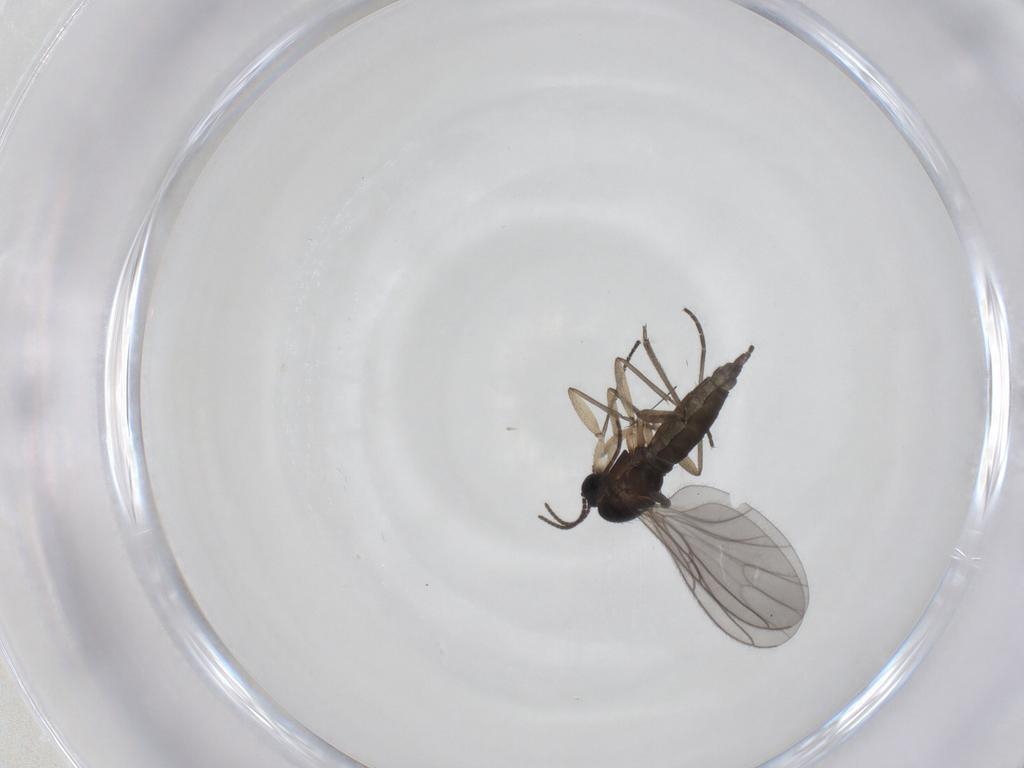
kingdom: Animalia
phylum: Arthropoda
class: Insecta
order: Diptera
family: Sciaridae
